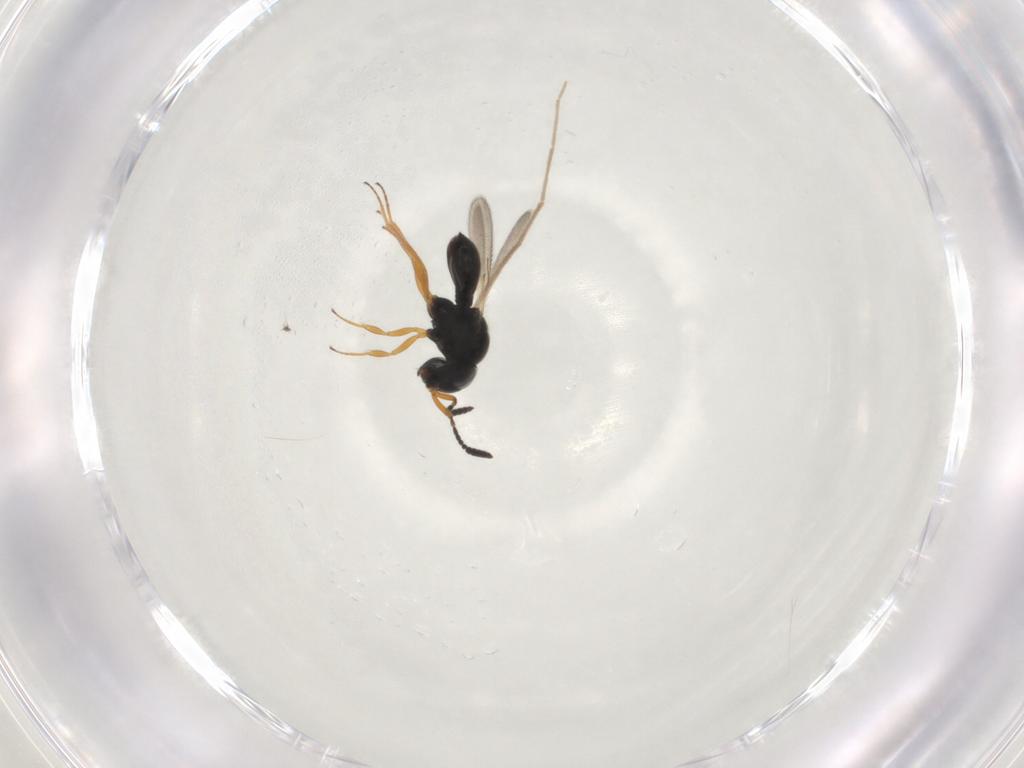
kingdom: Animalia
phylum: Arthropoda
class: Insecta
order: Hymenoptera
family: Scelionidae
